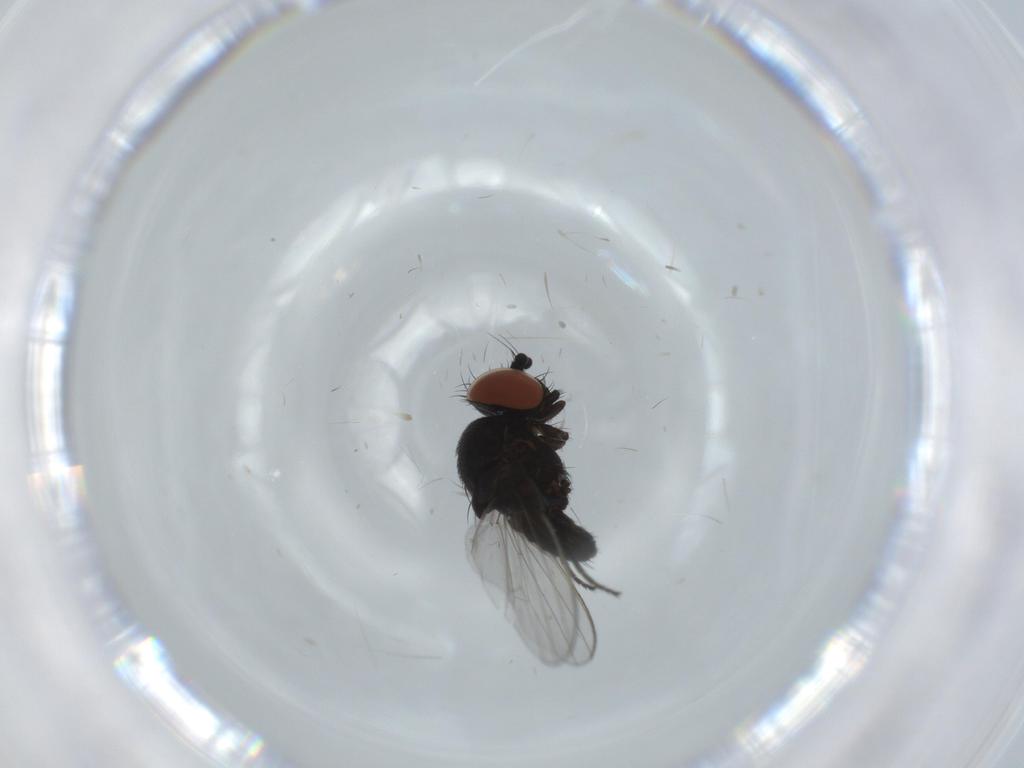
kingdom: Animalia
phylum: Arthropoda
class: Insecta
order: Diptera
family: Milichiidae
